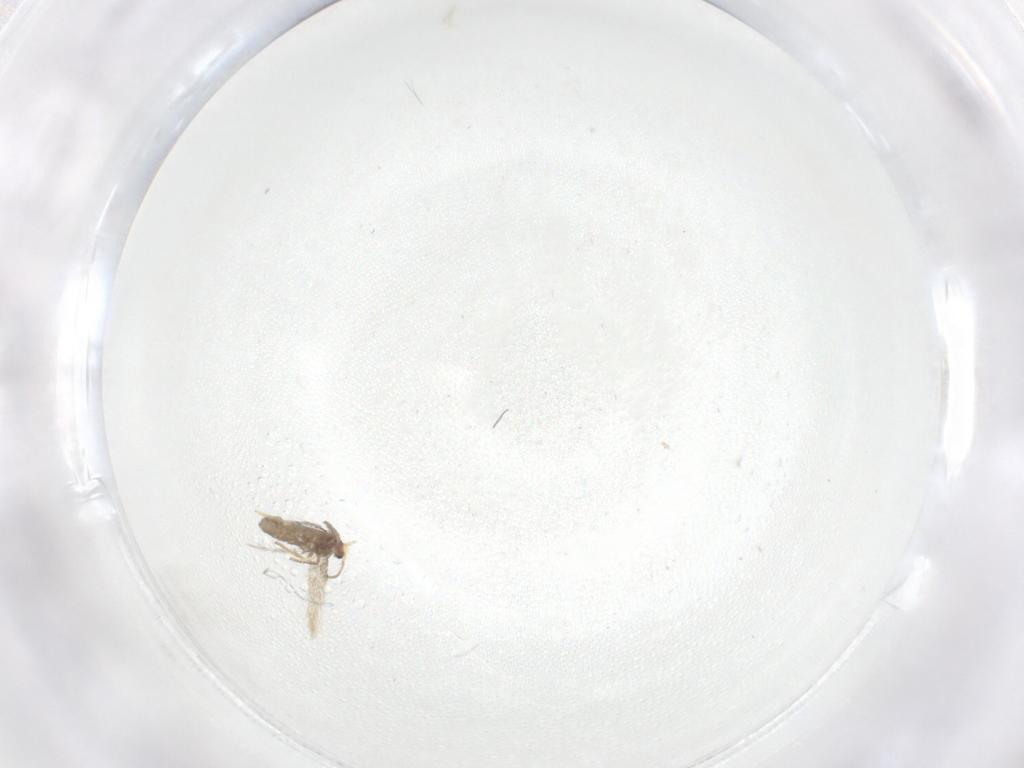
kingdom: Animalia
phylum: Arthropoda
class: Insecta
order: Lepidoptera
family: Nepticulidae
